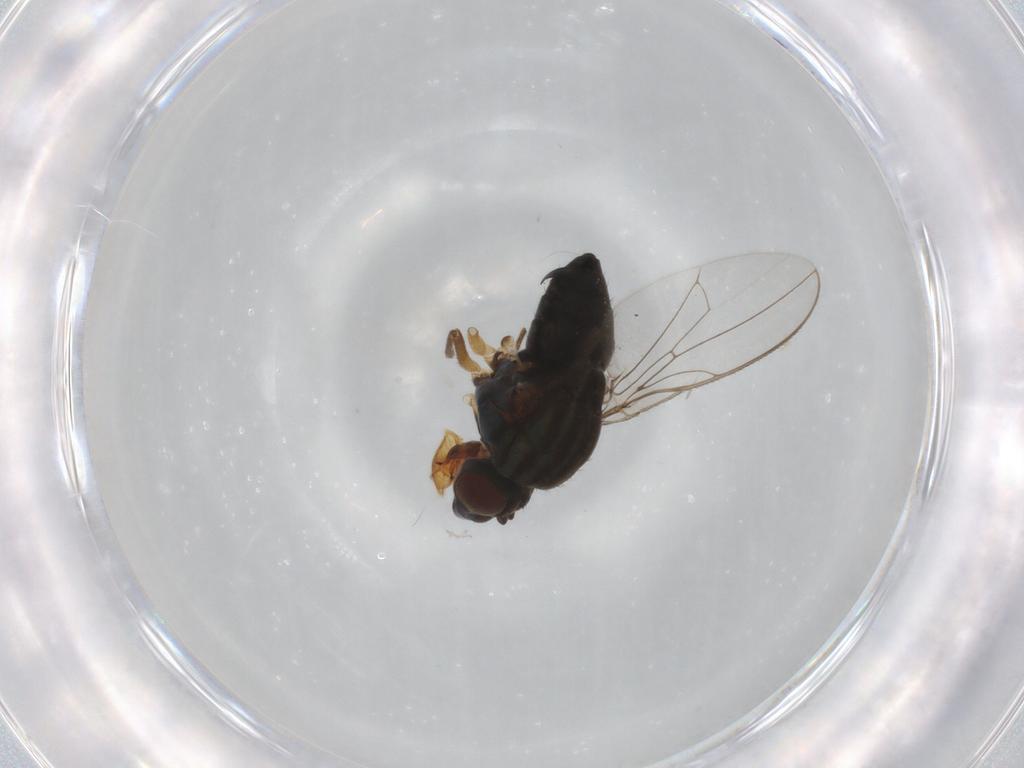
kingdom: Animalia
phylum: Arthropoda
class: Insecta
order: Diptera
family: Ephydridae
